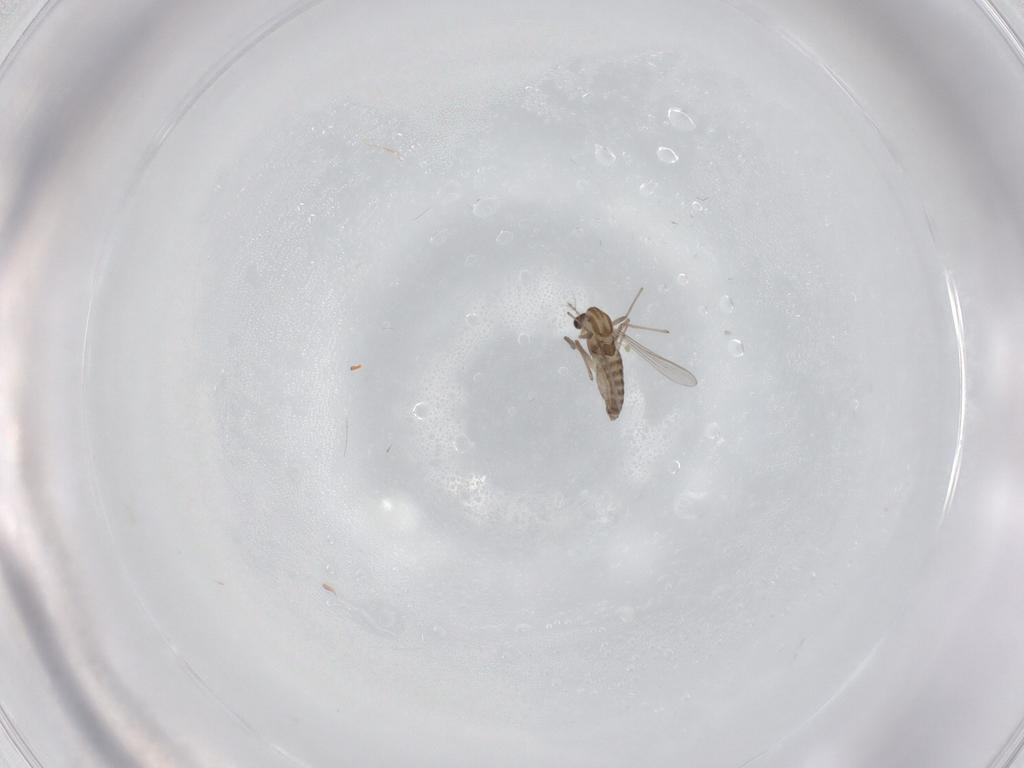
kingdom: Animalia
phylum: Arthropoda
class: Insecta
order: Diptera
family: Chironomidae
